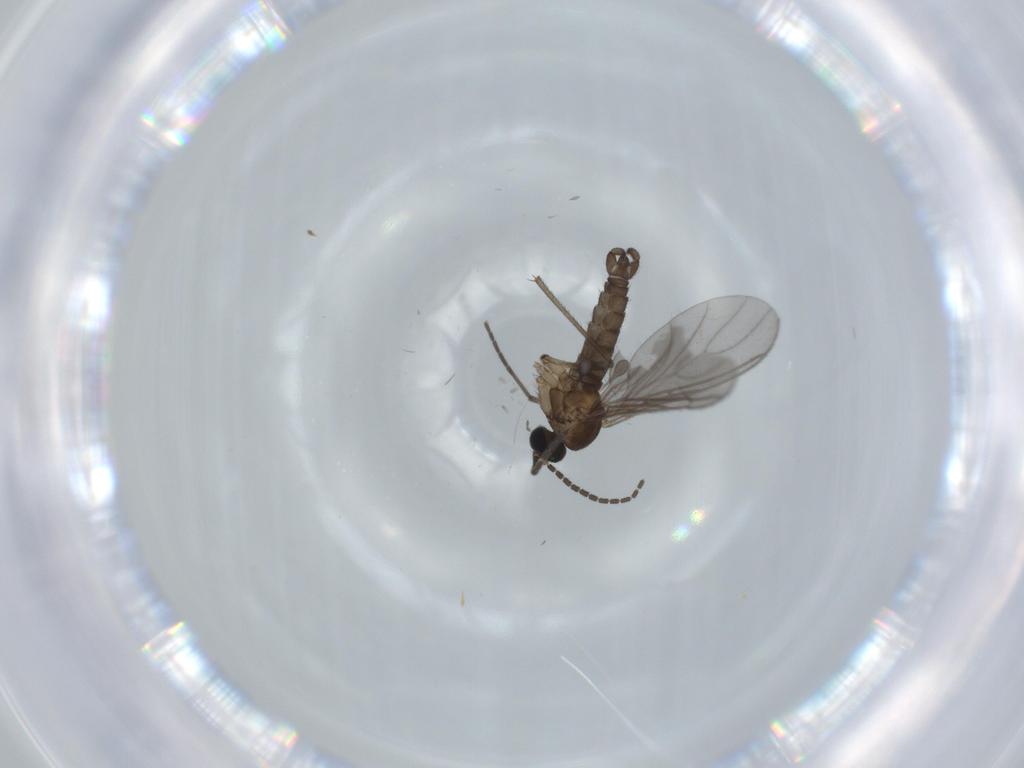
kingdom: Animalia
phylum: Arthropoda
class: Insecta
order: Diptera
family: Sciaridae
